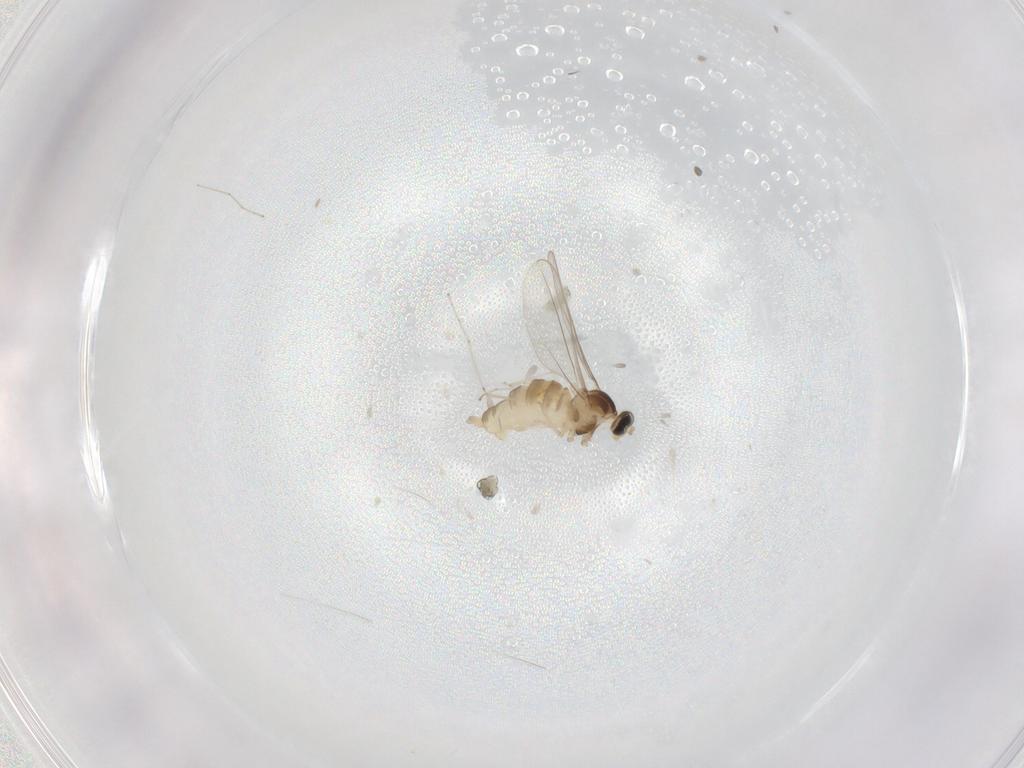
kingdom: Animalia
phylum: Arthropoda
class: Insecta
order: Diptera
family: Cecidomyiidae
